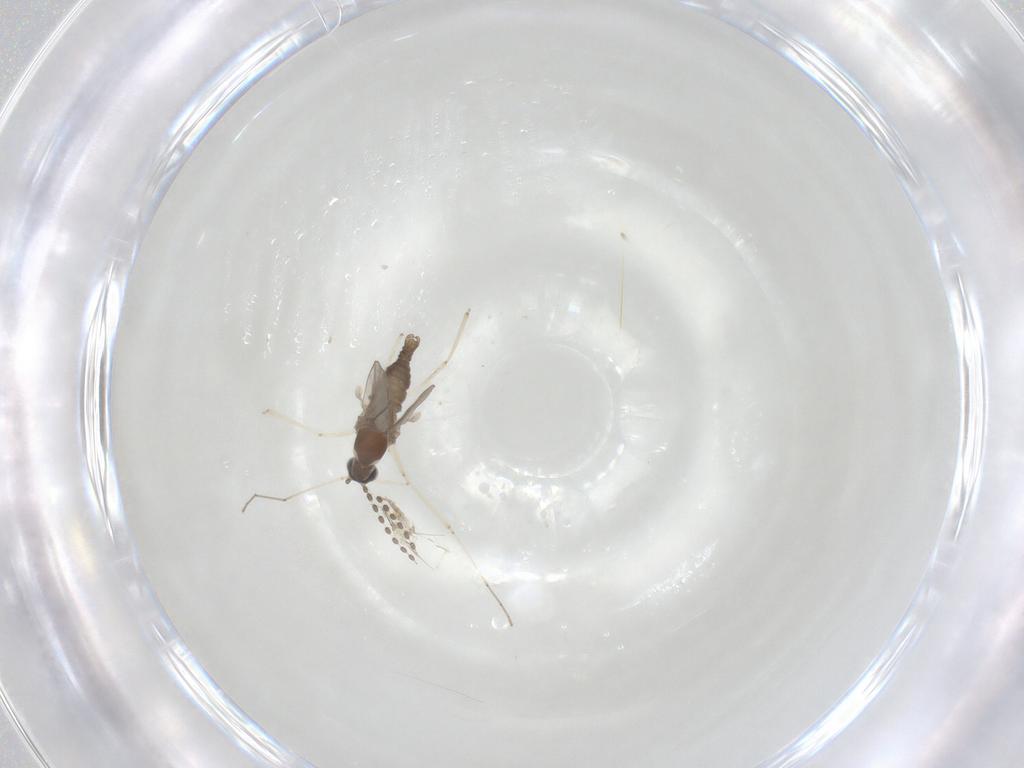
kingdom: Animalia
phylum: Arthropoda
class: Insecta
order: Diptera
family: Cecidomyiidae
